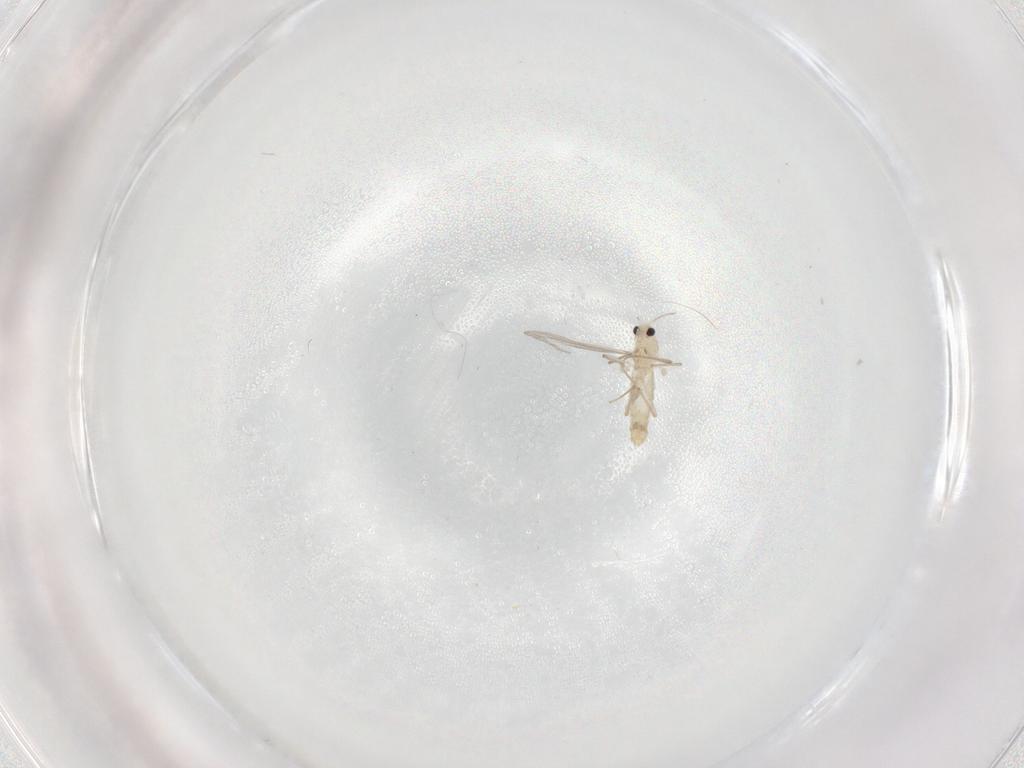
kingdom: Animalia
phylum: Arthropoda
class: Insecta
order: Diptera
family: Chironomidae
